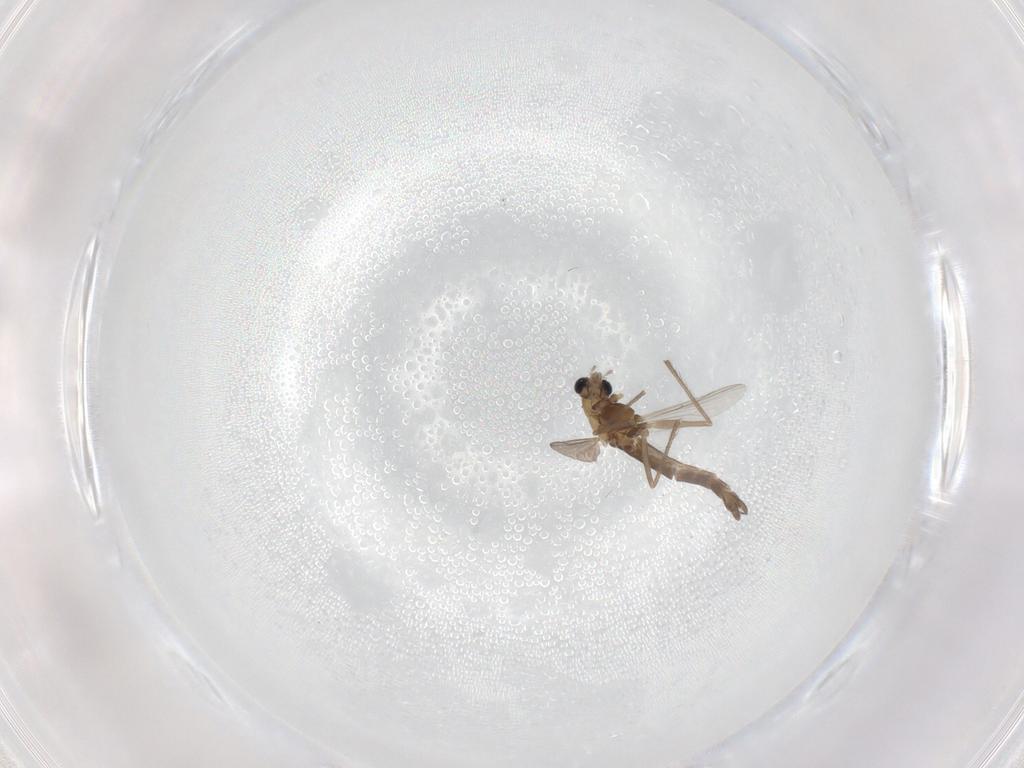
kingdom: Animalia
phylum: Arthropoda
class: Insecta
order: Diptera
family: Chironomidae
